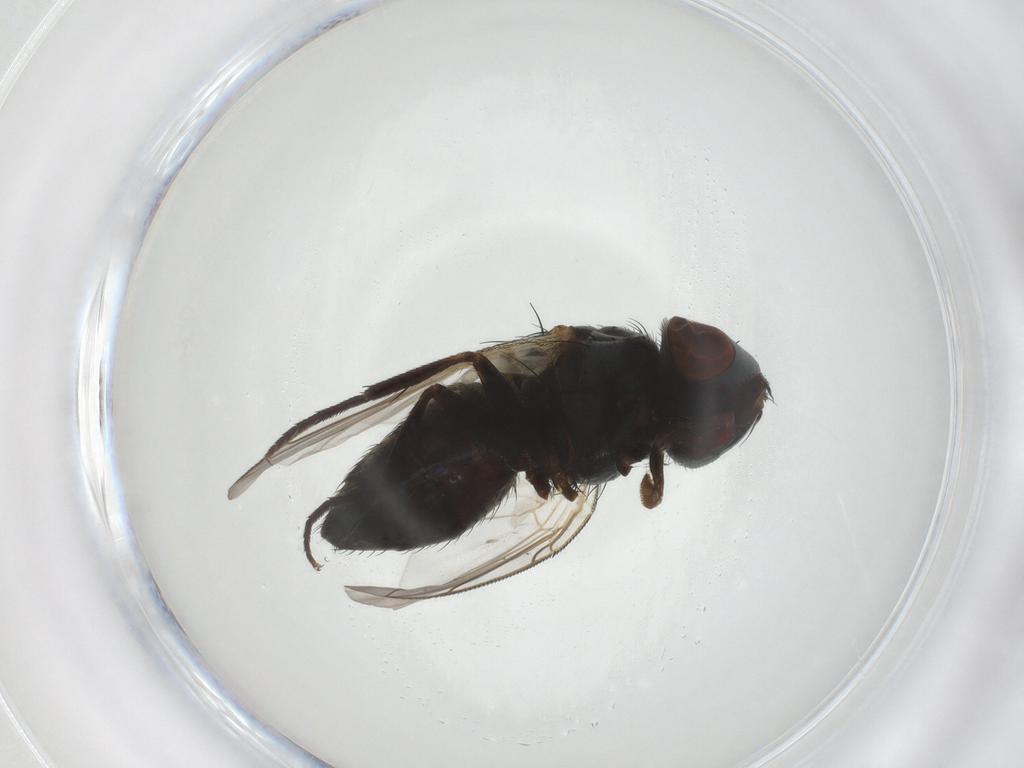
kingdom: Animalia
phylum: Arthropoda
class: Insecta
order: Diptera
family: Sarcophagidae
